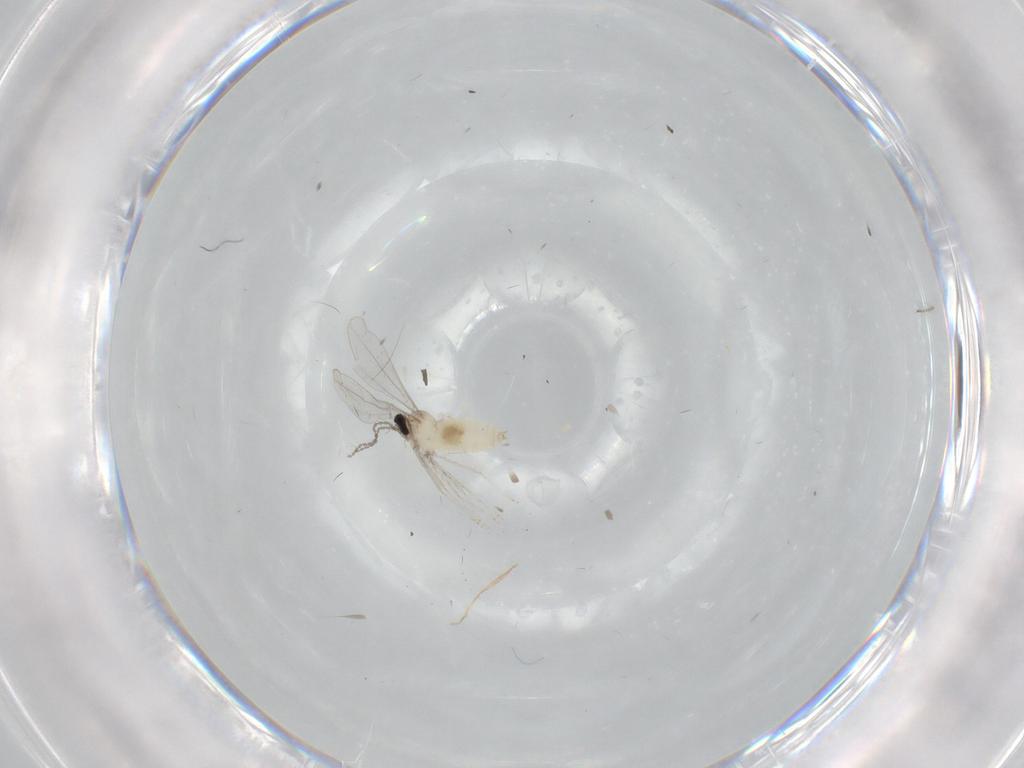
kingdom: Animalia
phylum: Arthropoda
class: Insecta
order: Diptera
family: Cecidomyiidae
